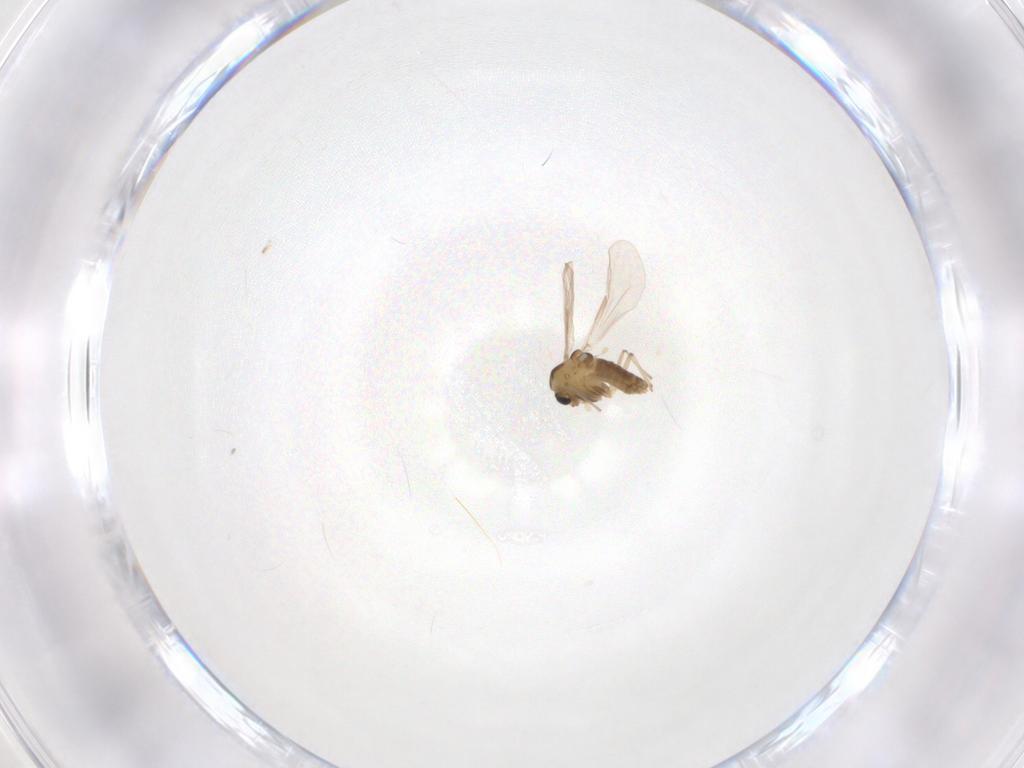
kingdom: Animalia
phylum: Arthropoda
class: Insecta
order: Diptera
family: Chironomidae
